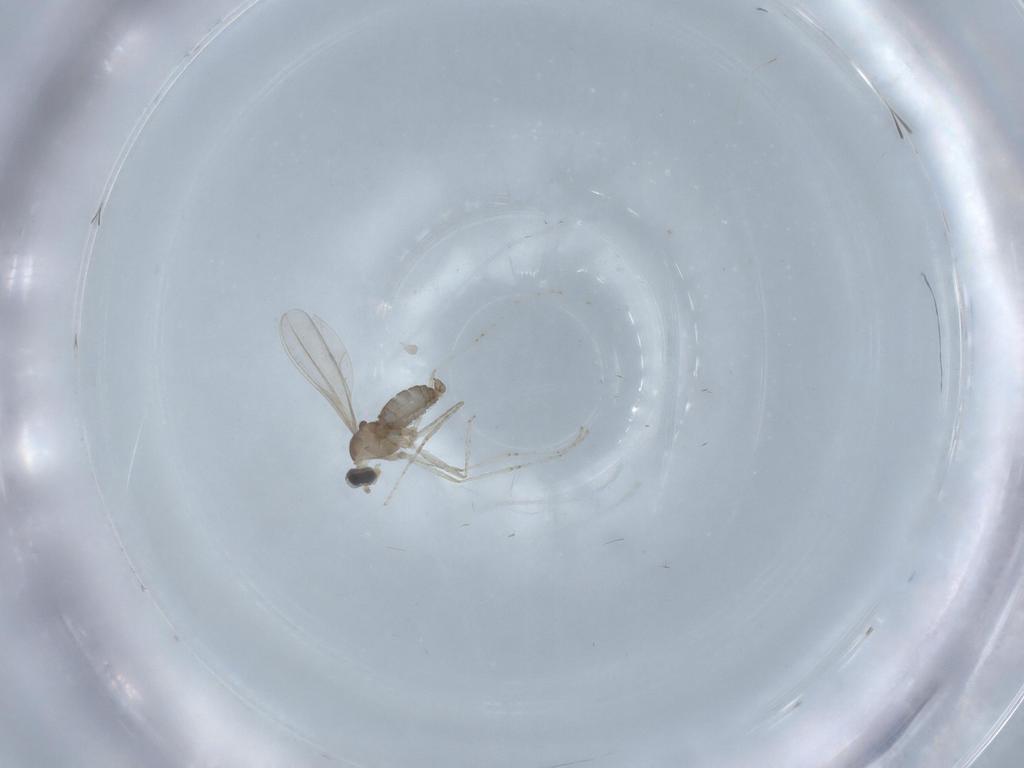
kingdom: Animalia
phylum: Arthropoda
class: Insecta
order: Diptera
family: Cecidomyiidae
